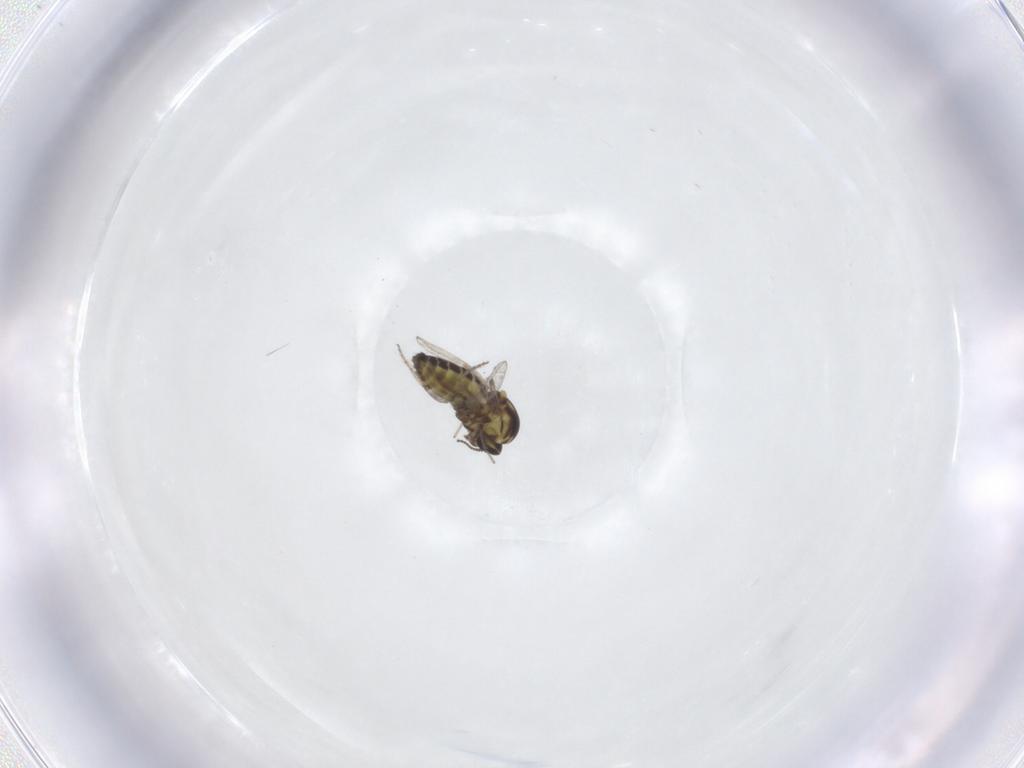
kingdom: Animalia
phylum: Arthropoda
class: Insecta
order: Diptera
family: Ceratopogonidae
